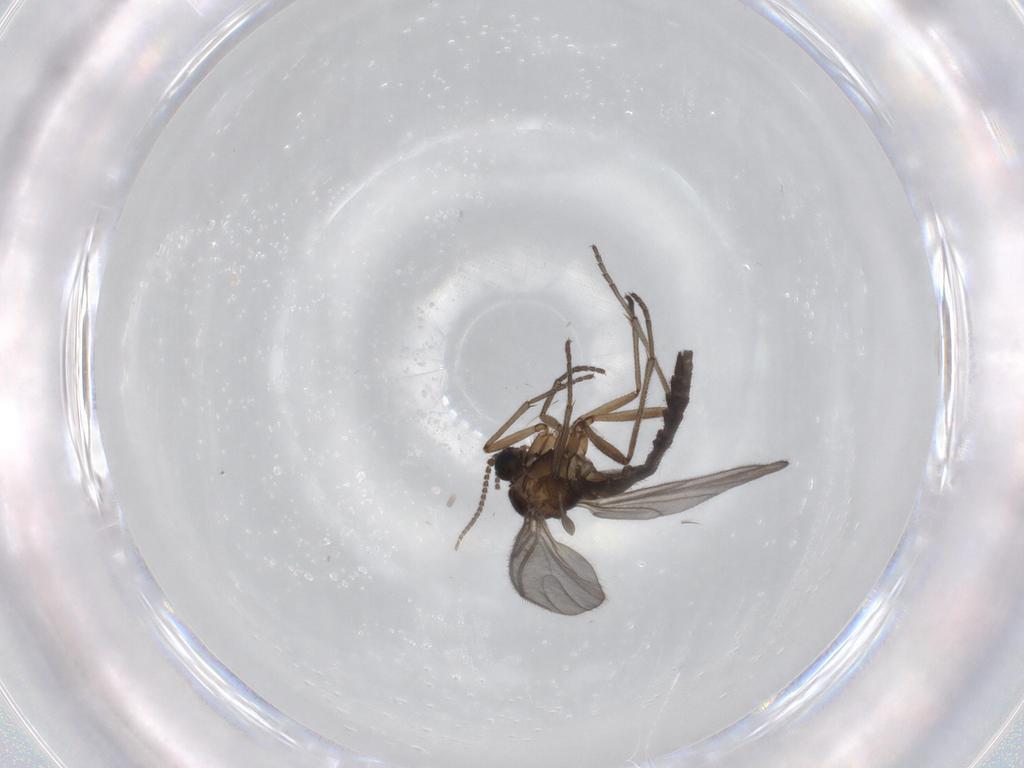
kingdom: Animalia
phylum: Arthropoda
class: Insecta
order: Diptera
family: Sciaridae
